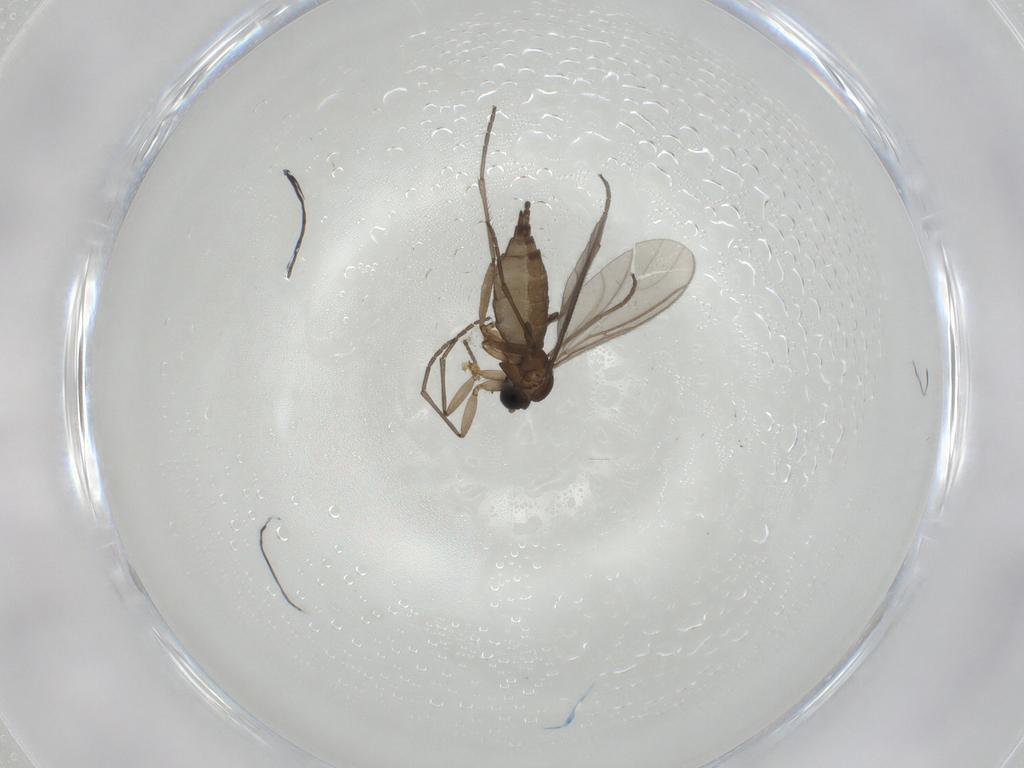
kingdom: Animalia
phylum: Arthropoda
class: Insecta
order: Diptera
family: Sciaridae
